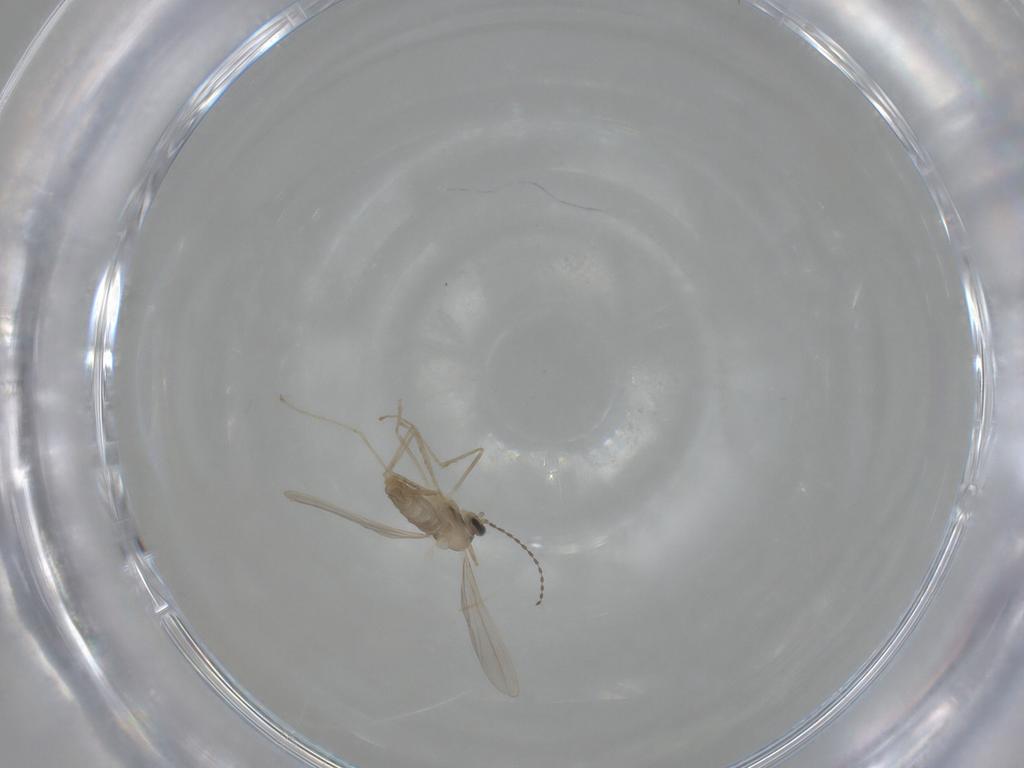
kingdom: Animalia
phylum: Arthropoda
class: Insecta
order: Diptera
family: Cecidomyiidae
